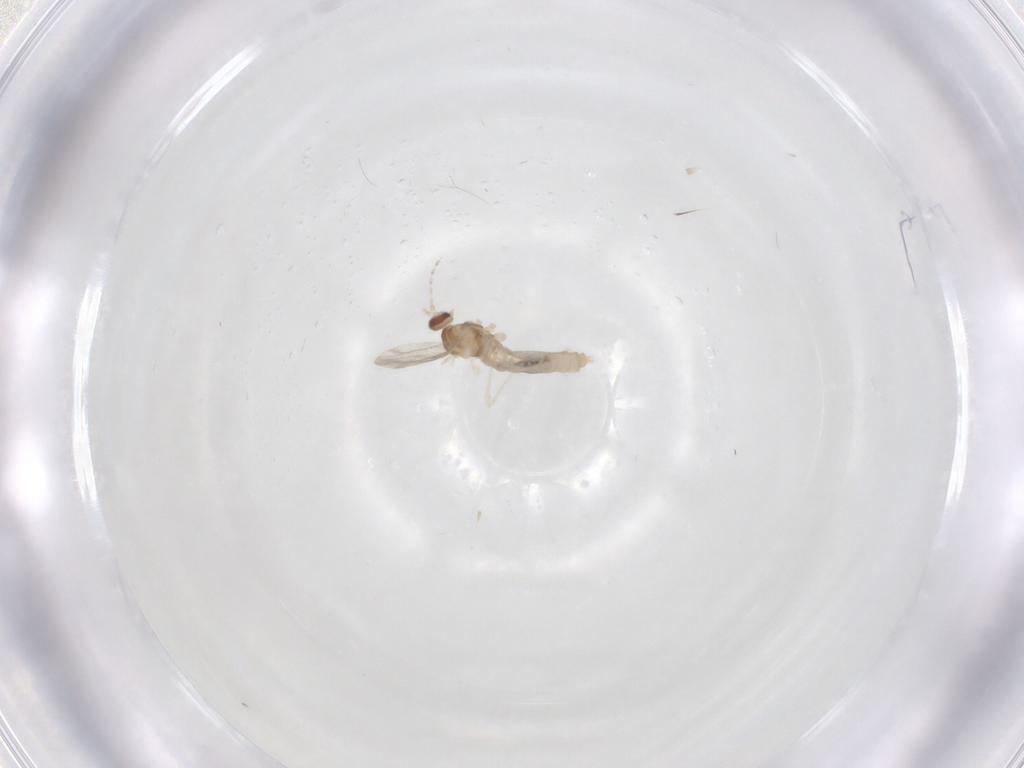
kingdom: Animalia
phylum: Arthropoda
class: Insecta
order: Diptera
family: Cecidomyiidae
